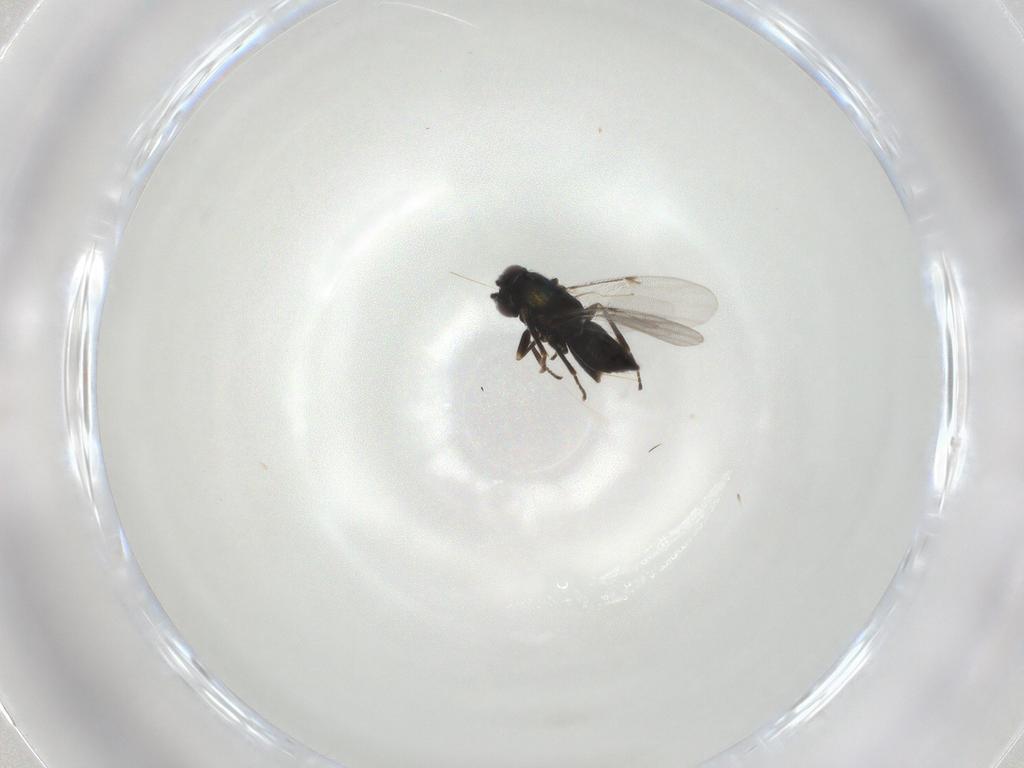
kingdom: Animalia
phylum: Arthropoda
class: Insecta
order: Hymenoptera
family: Encyrtidae
